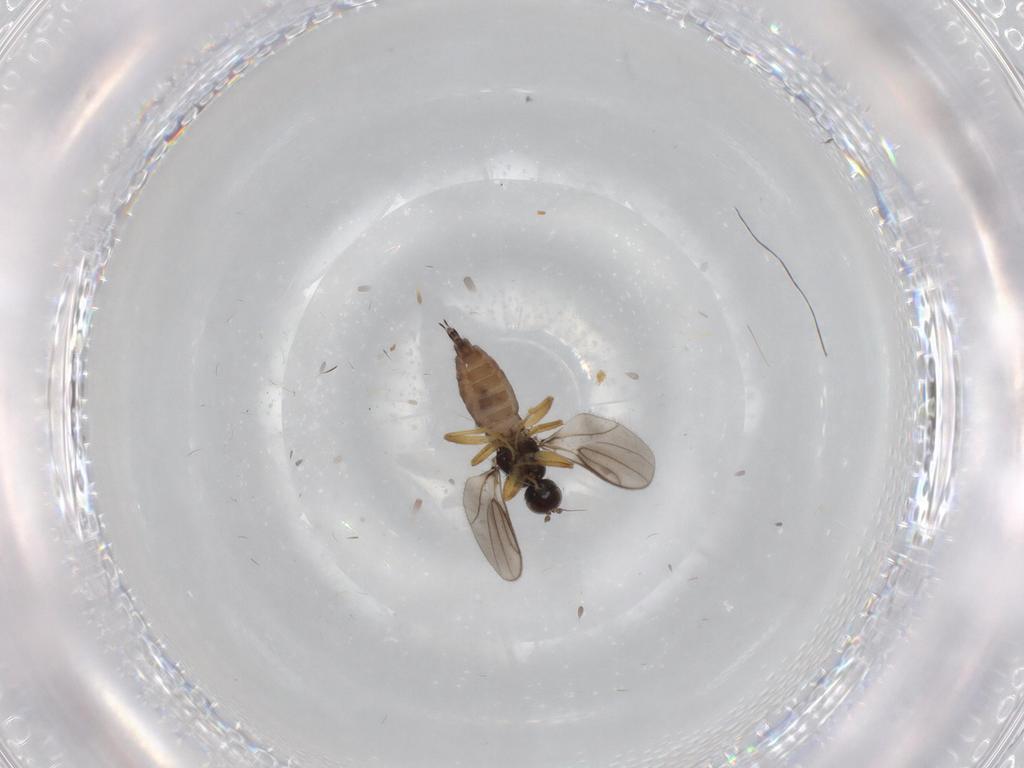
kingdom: Animalia
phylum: Arthropoda
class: Insecta
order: Diptera
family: Hybotidae
